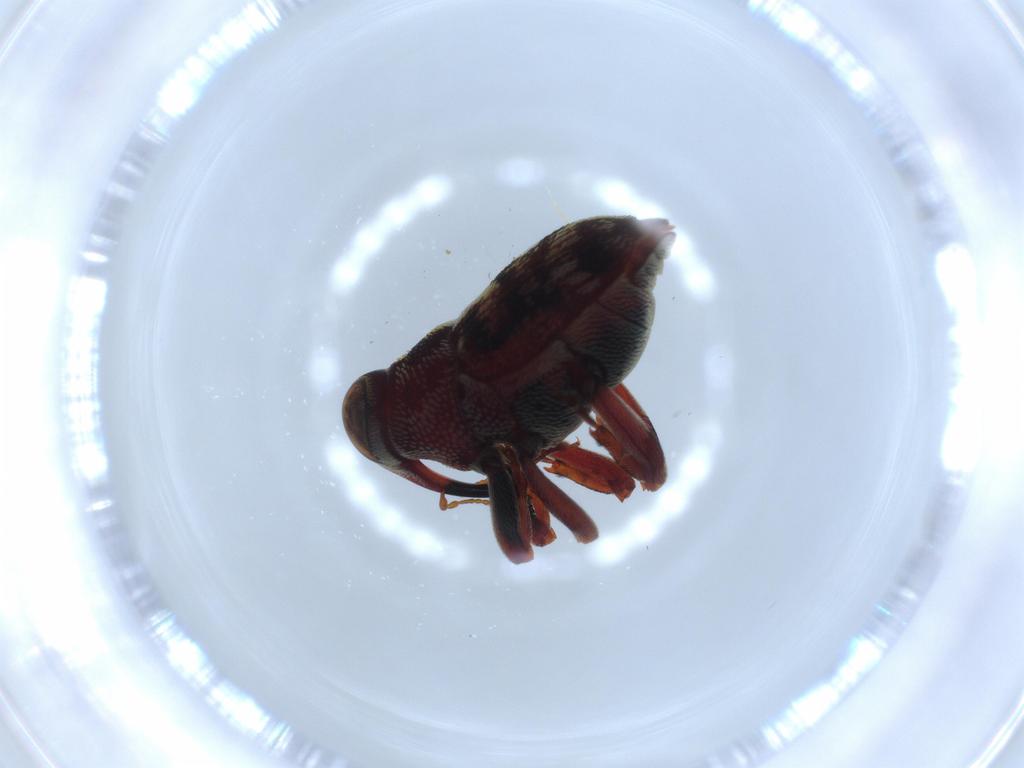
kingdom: Animalia
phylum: Arthropoda
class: Insecta
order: Coleoptera
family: Curculionidae
